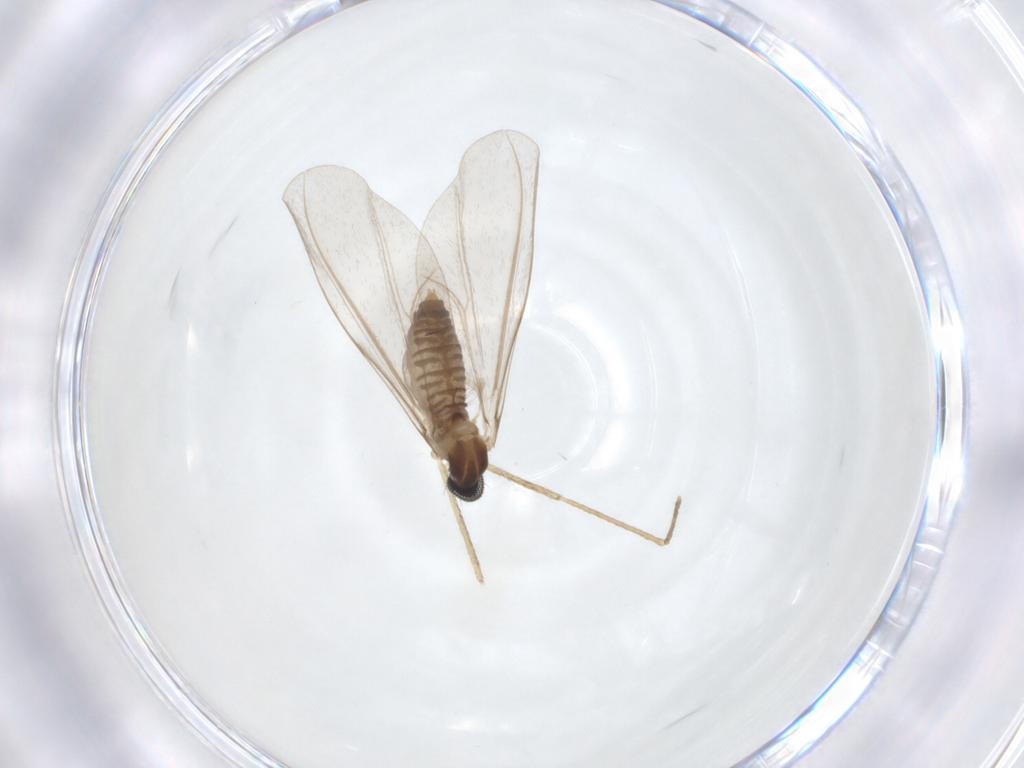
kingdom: Animalia
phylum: Arthropoda
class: Insecta
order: Diptera
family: Cecidomyiidae
